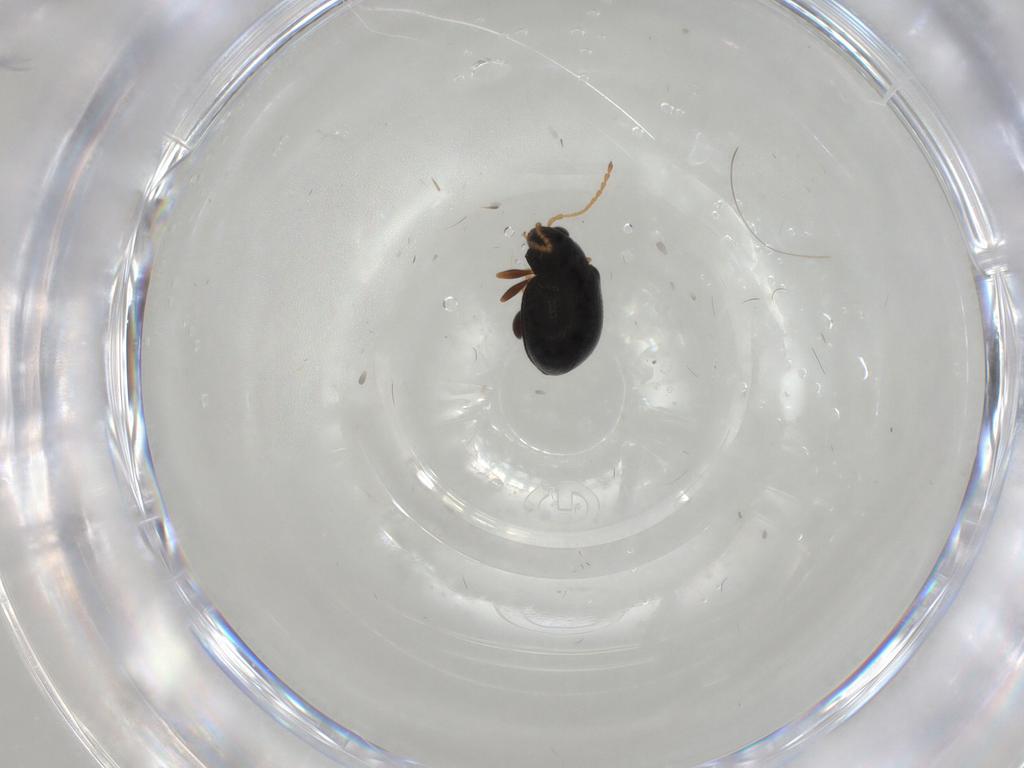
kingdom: Animalia
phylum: Arthropoda
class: Insecta
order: Coleoptera
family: Chrysomelidae
